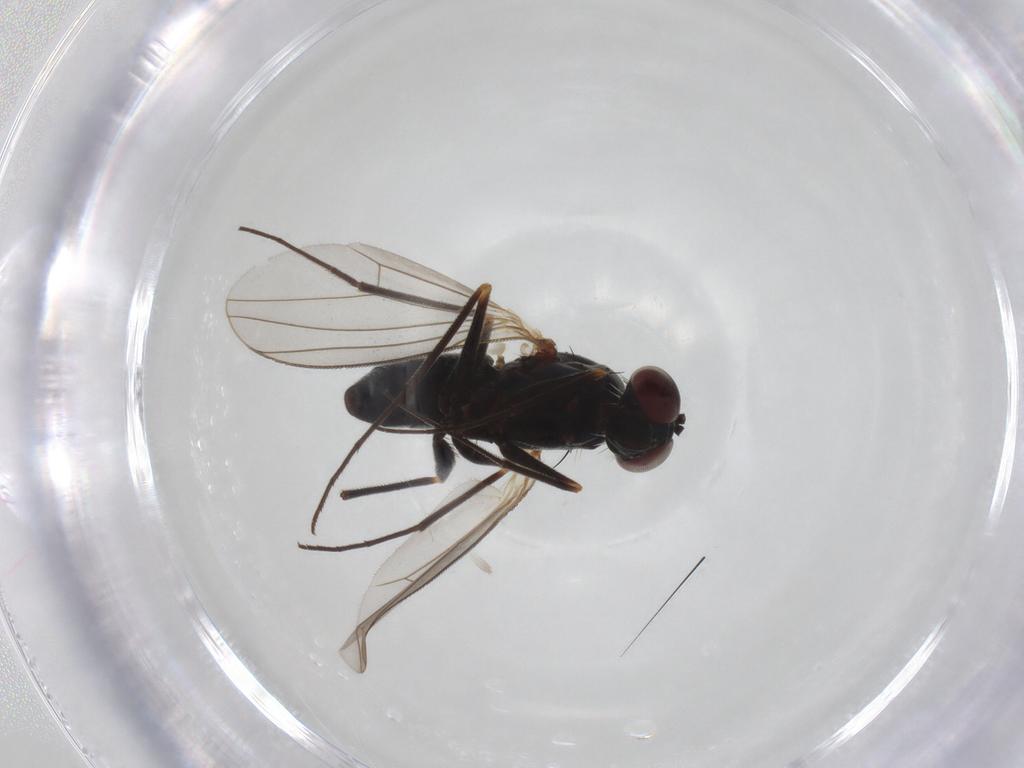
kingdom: Animalia
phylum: Arthropoda
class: Insecta
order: Diptera
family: Dolichopodidae
